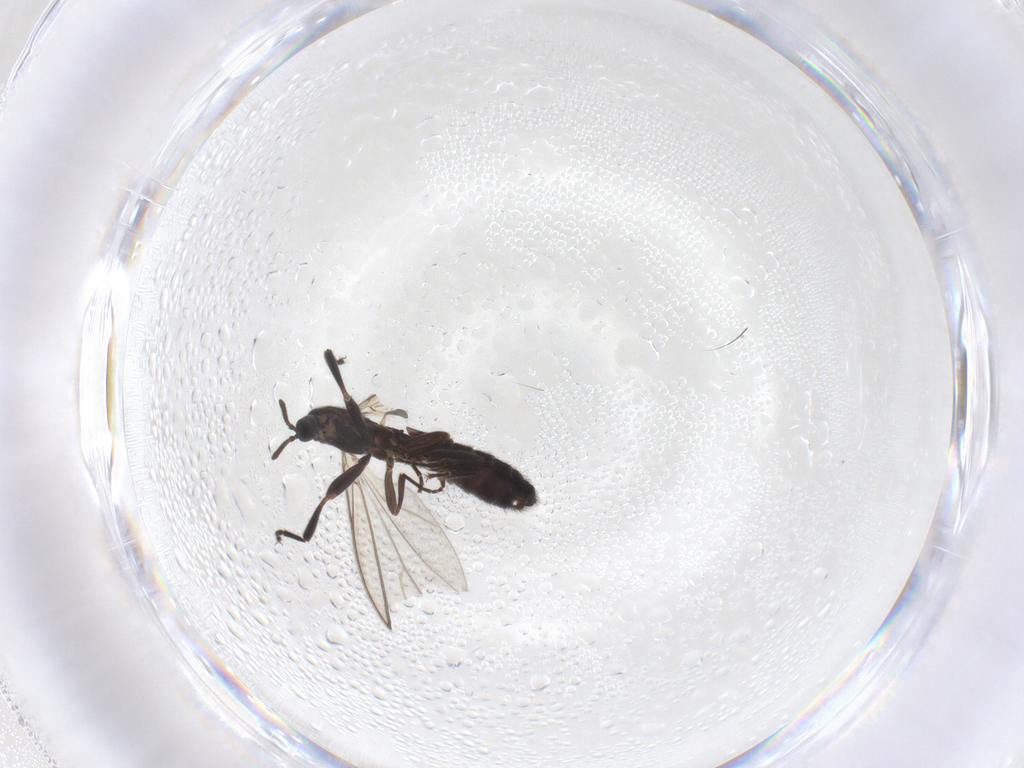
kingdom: Animalia
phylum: Arthropoda
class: Insecta
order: Diptera
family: Scatopsidae
